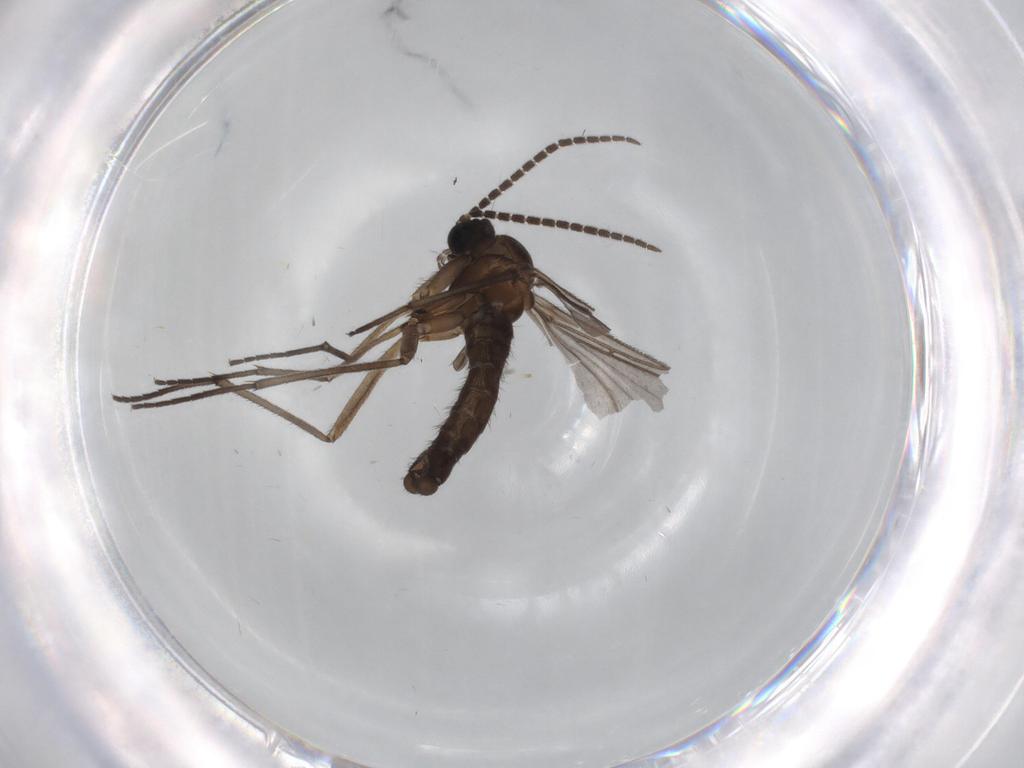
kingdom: Animalia
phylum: Arthropoda
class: Insecta
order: Diptera
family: Sciaridae
